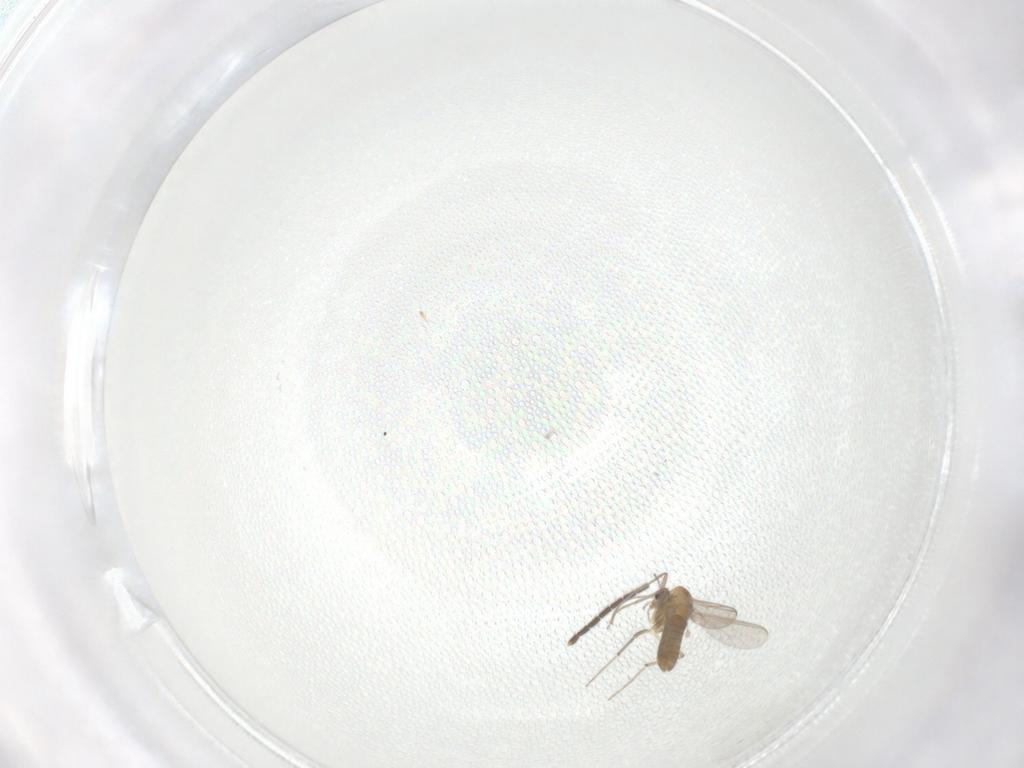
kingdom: Animalia
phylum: Arthropoda
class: Insecta
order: Diptera
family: Sciaridae
